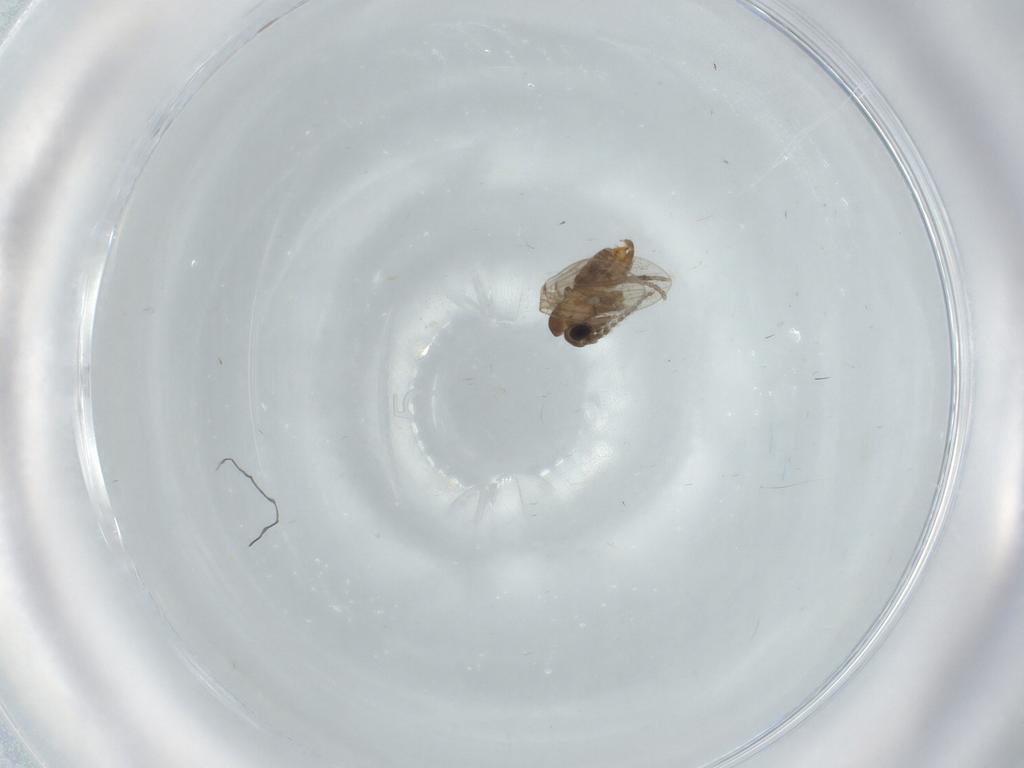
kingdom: Animalia
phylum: Arthropoda
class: Insecta
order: Diptera
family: Psychodidae
